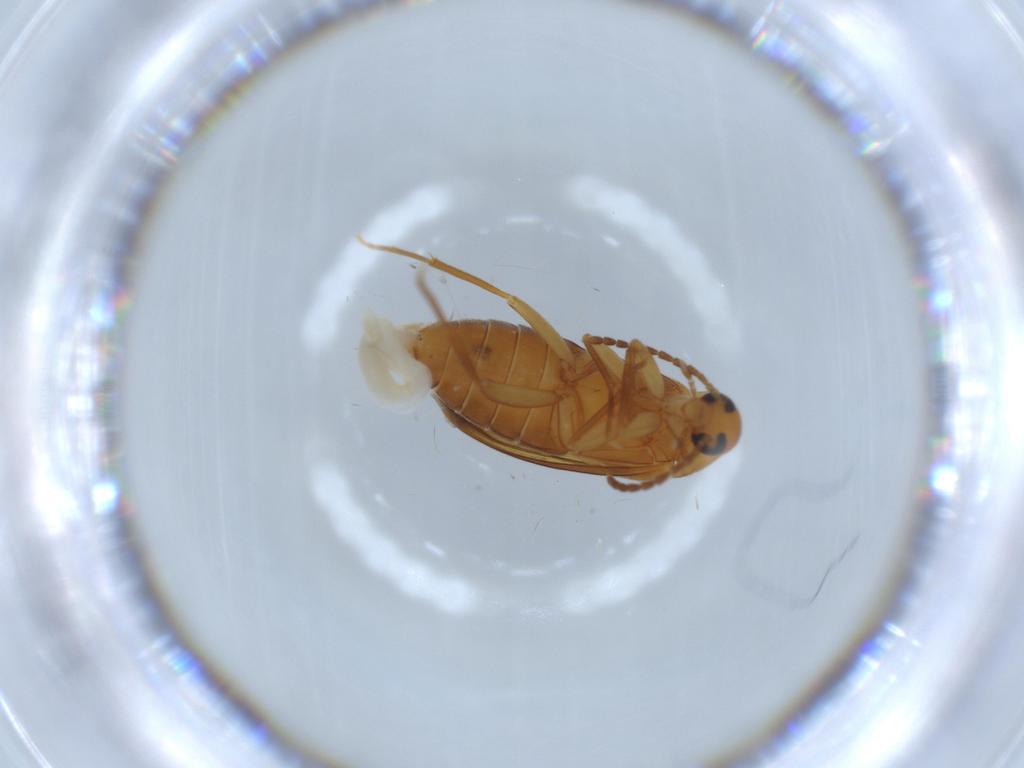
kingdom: Animalia
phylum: Arthropoda
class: Insecta
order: Coleoptera
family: Scraptiidae
